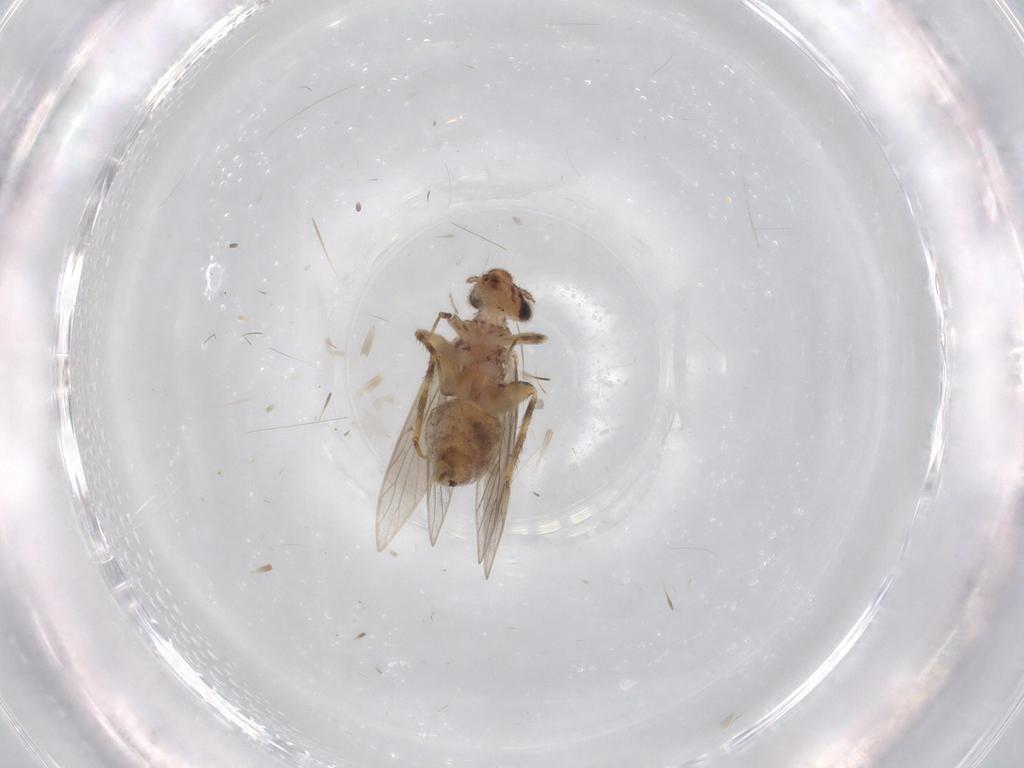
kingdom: Animalia
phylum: Arthropoda
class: Insecta
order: Psocodea
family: Lepidopsocidae
